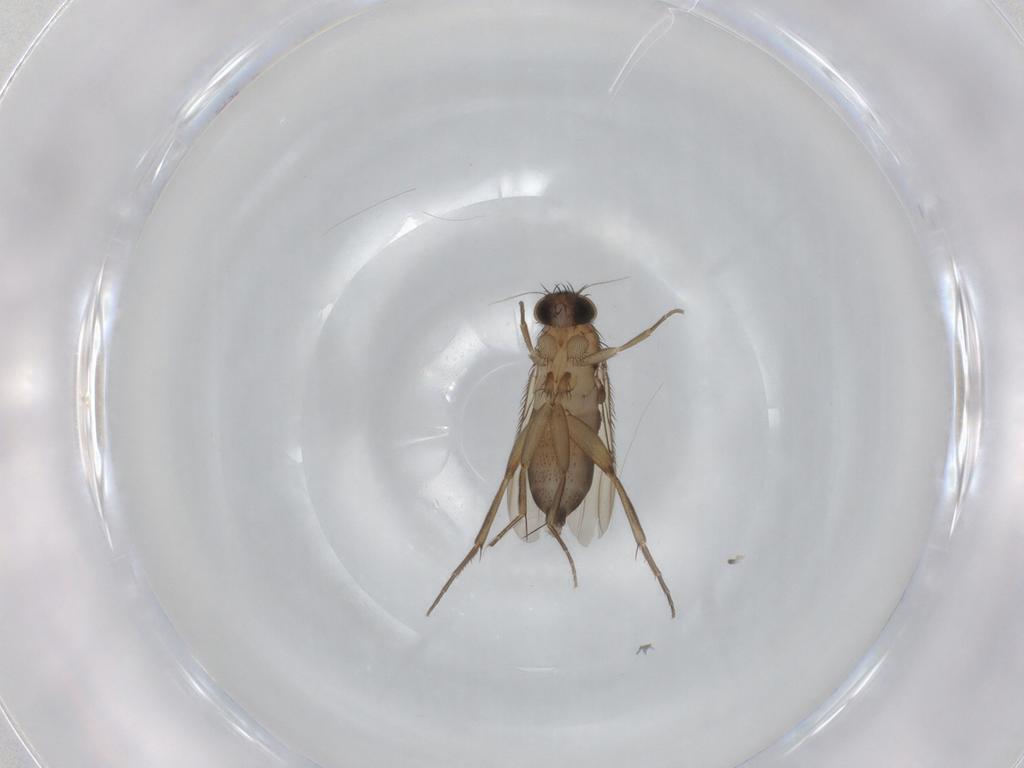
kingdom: Animalia
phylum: Arthropoda
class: Insecta
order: Diptera
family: Phoridae
